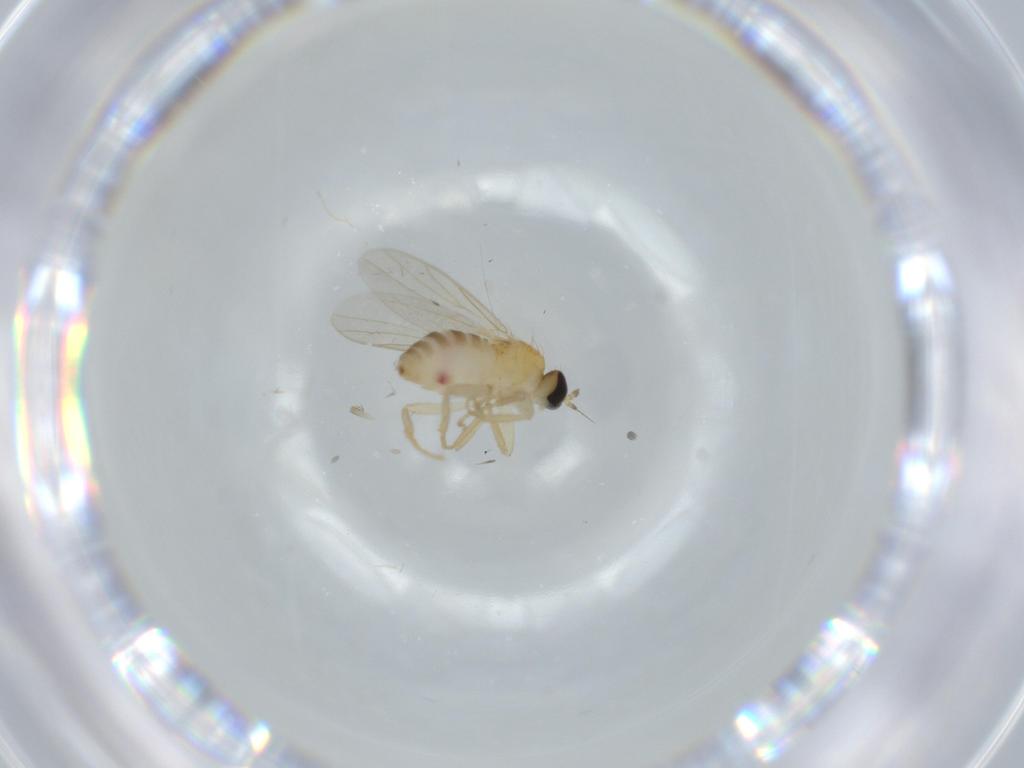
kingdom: Animalia
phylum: Arthropoda
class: Insecta
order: Diptera
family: Hybotidae
